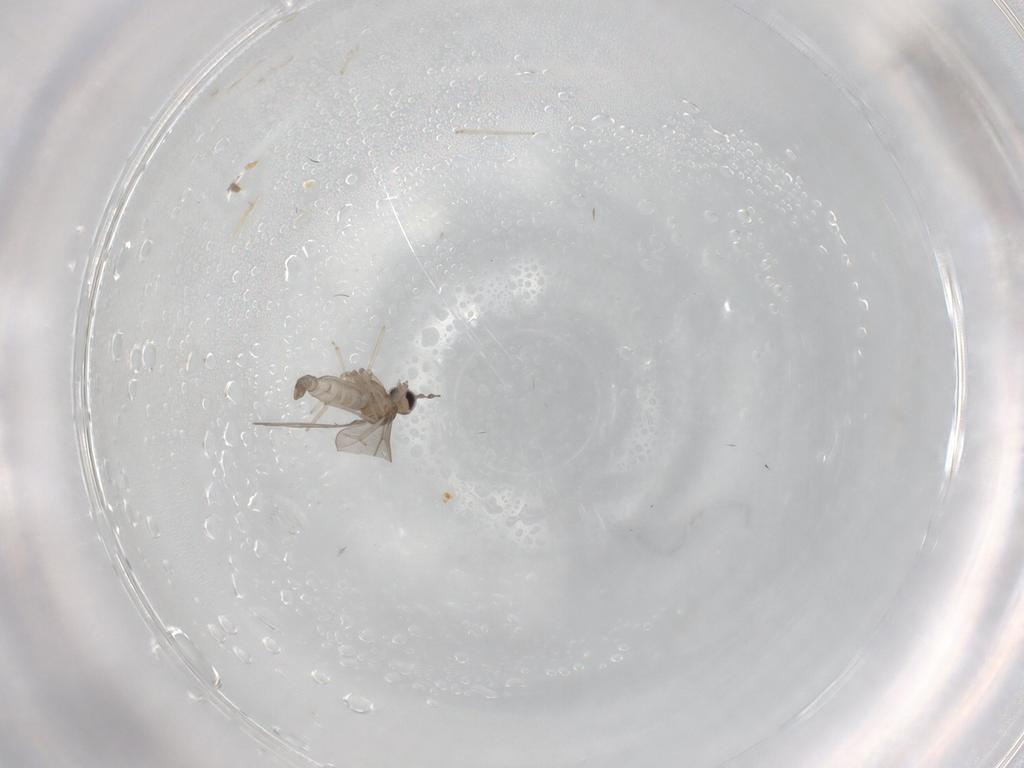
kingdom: Animalia
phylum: Arthropoda
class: Insecta
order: Diptera
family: Cecidomyiidae
